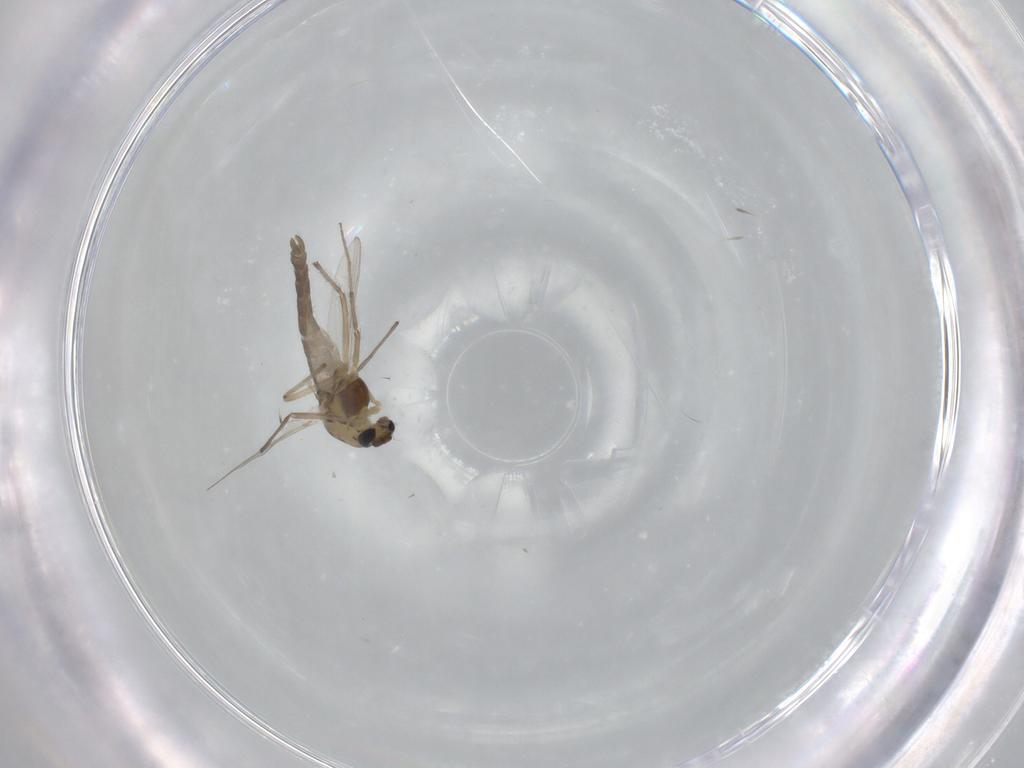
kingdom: Animalia
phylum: Arthropoda
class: Insecta
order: Diptera
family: Chironomidae
